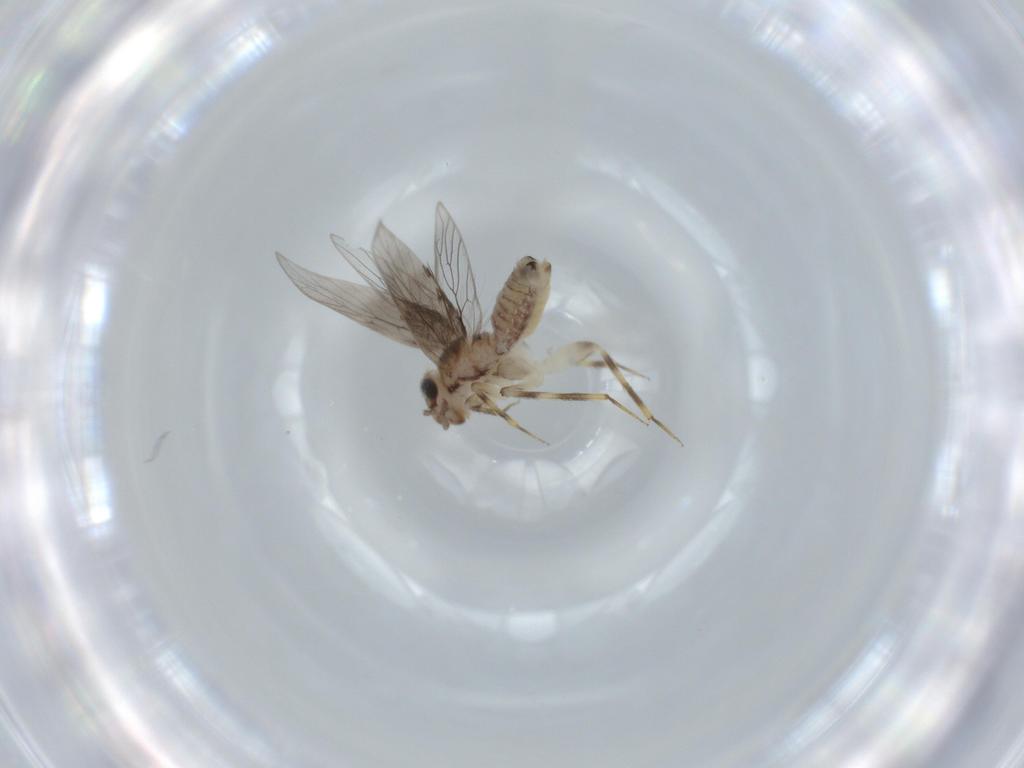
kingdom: Animalia
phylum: Arthropoda
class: Insecta
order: Psocodea
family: Lepidopsocidae
